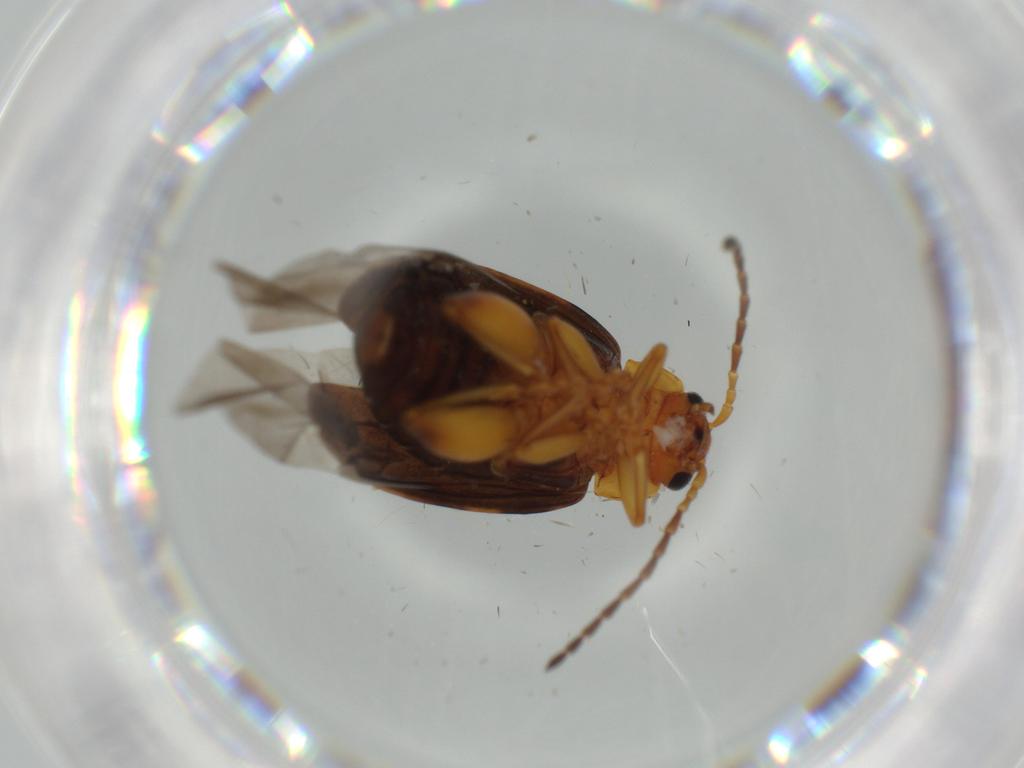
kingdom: Animalia
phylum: Arthropoda
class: Insecta
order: Coleoptera
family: Chrysomelidae
